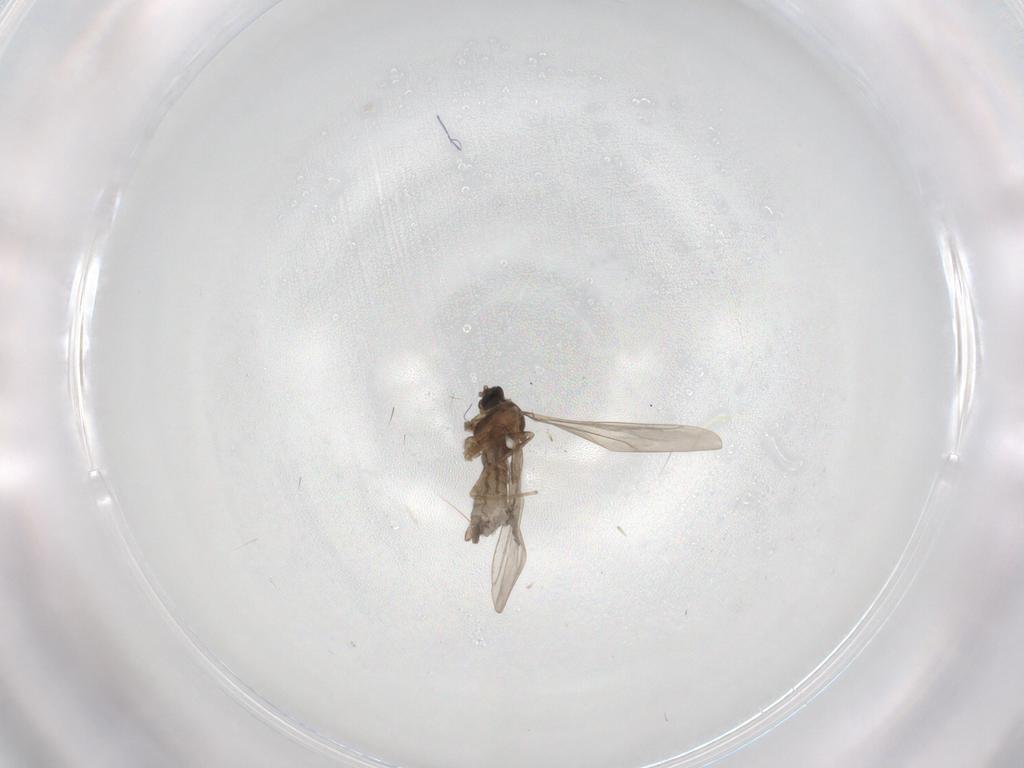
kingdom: Animalia
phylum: Arthropoda
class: Insecta
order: Diptera
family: Cecidomyiidae
